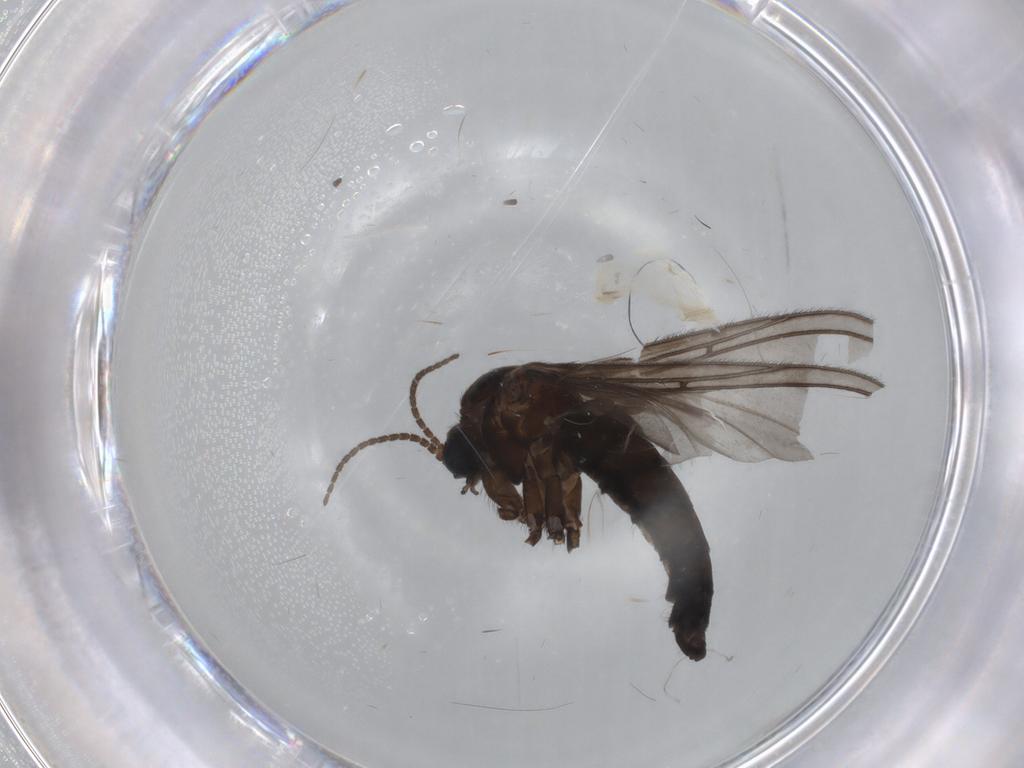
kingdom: Animalia
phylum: Arthropoda
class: Insecta
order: Diptera
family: Sciaridae
